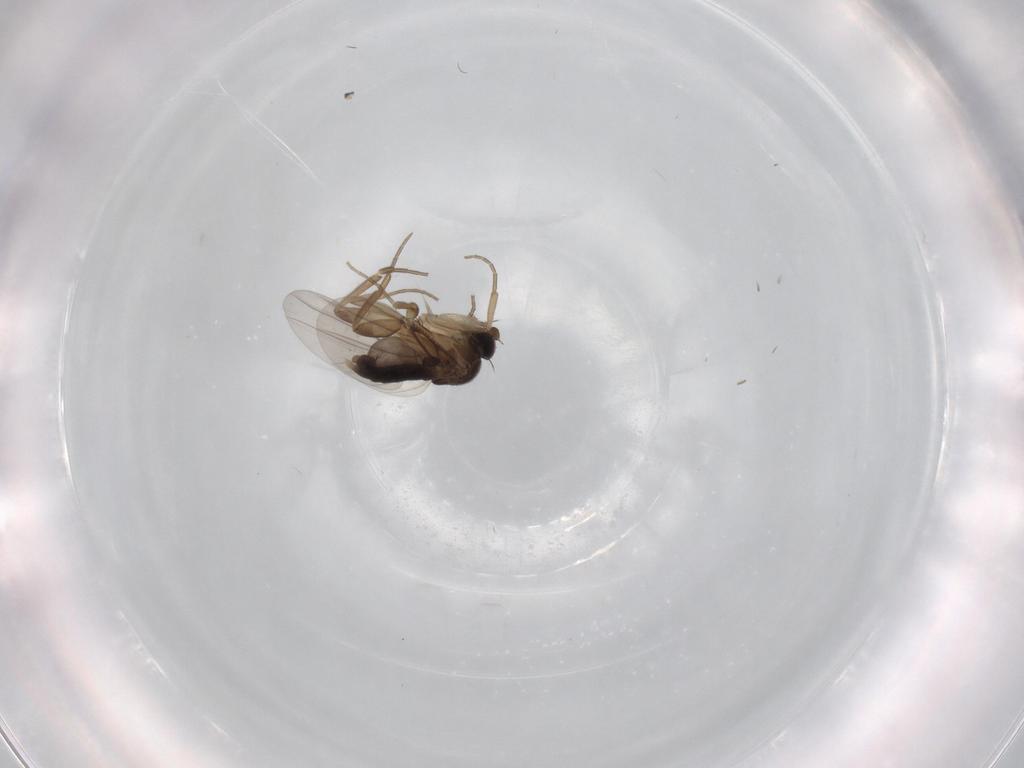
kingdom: Animalia
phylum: Arthropoda
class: Insecta
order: Diptera
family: Phoridae
